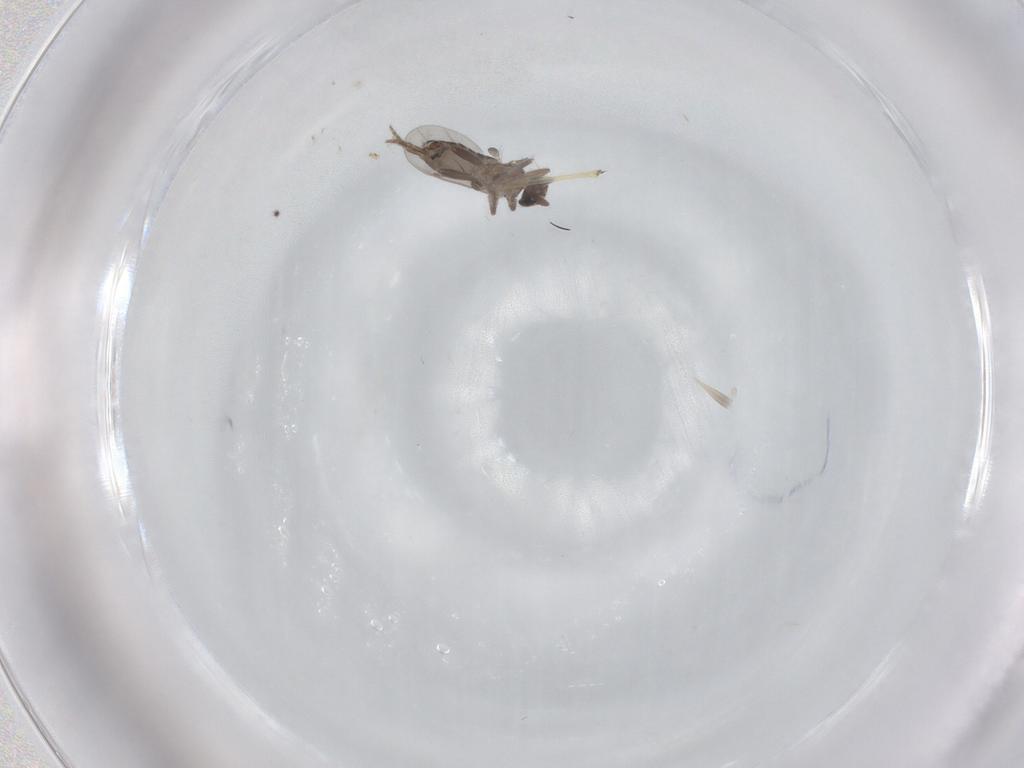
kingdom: Animalia
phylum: Arthropoda
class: Insecta
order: Diptera
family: Tabanidae
